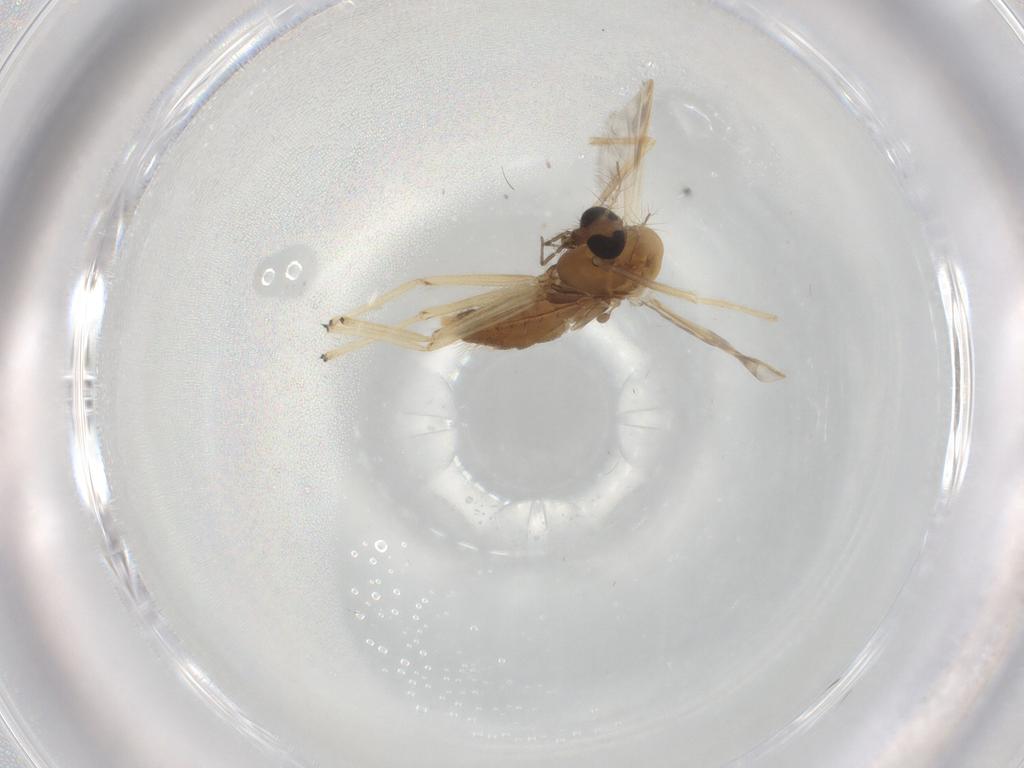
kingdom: Animalia
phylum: Arthropoda
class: Insecta
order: Diptera
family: Chironomidae
